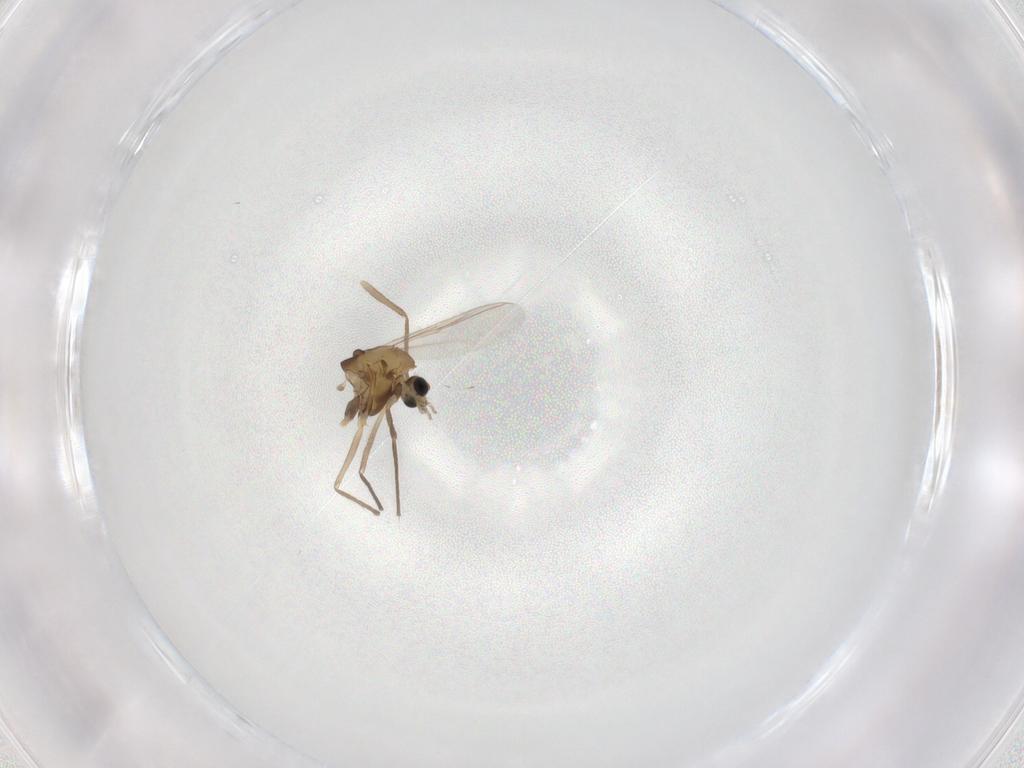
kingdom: Animalia
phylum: Arthropoda
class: Insecta
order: Diptera
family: Chironomidae
